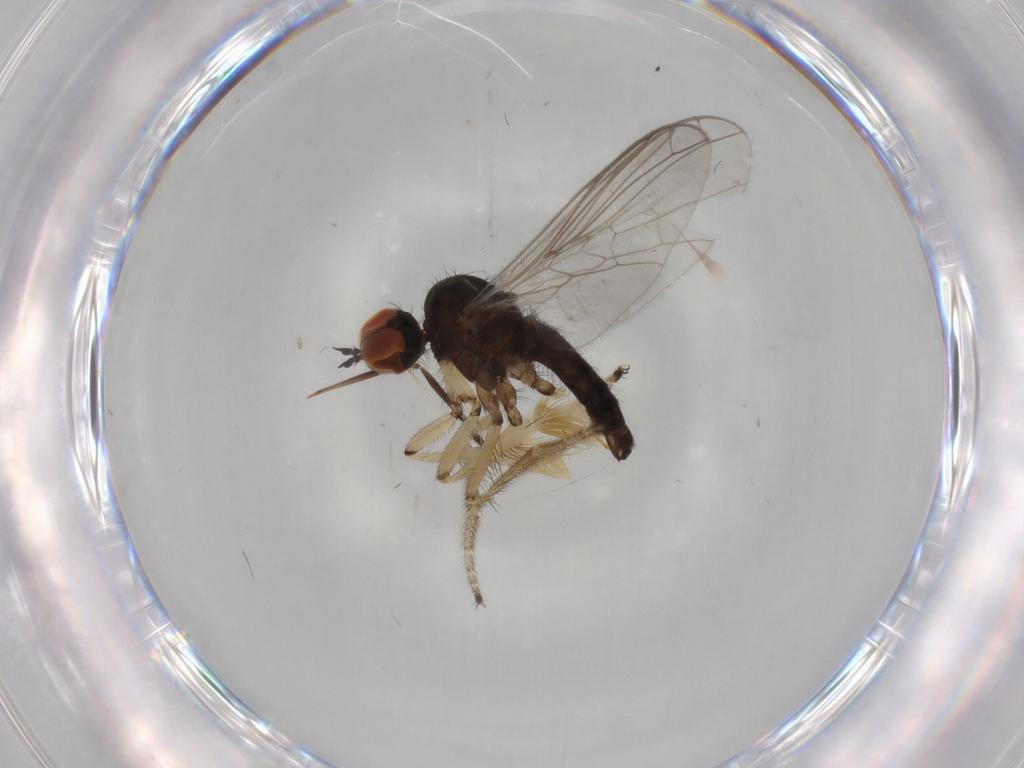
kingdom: Animalia
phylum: Arthropoda
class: Insecta
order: Diptera
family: Empididae
